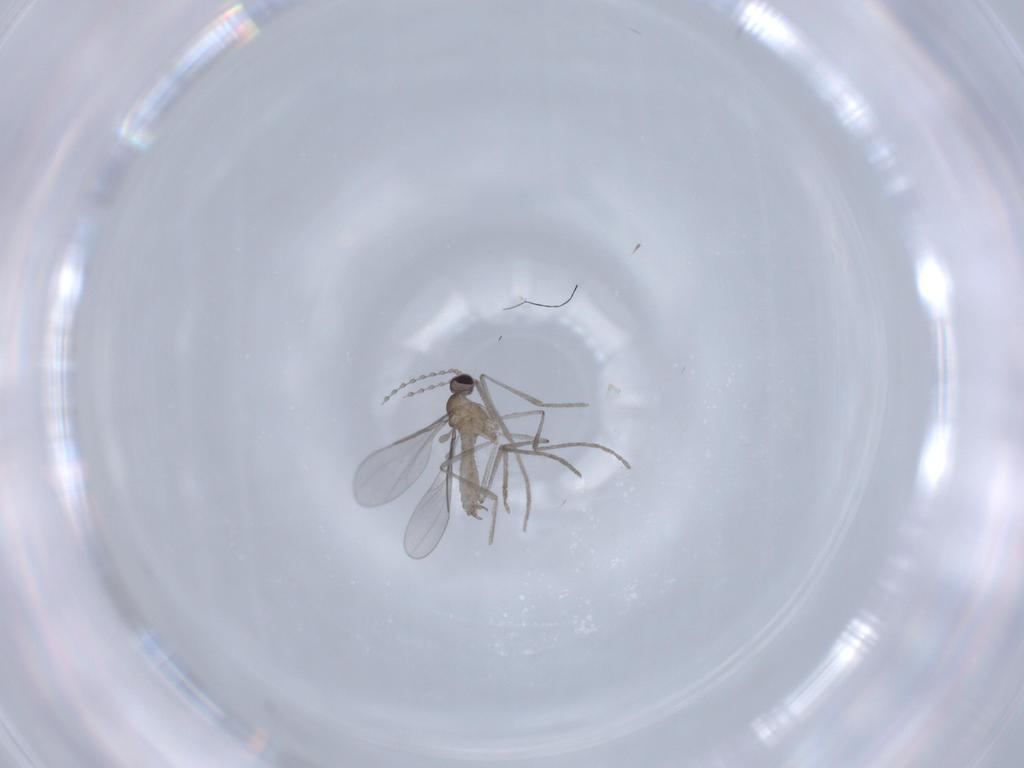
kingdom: Animalia
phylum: Arthropoda
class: Insecta
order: Diptera
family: Cecidomyiidae
